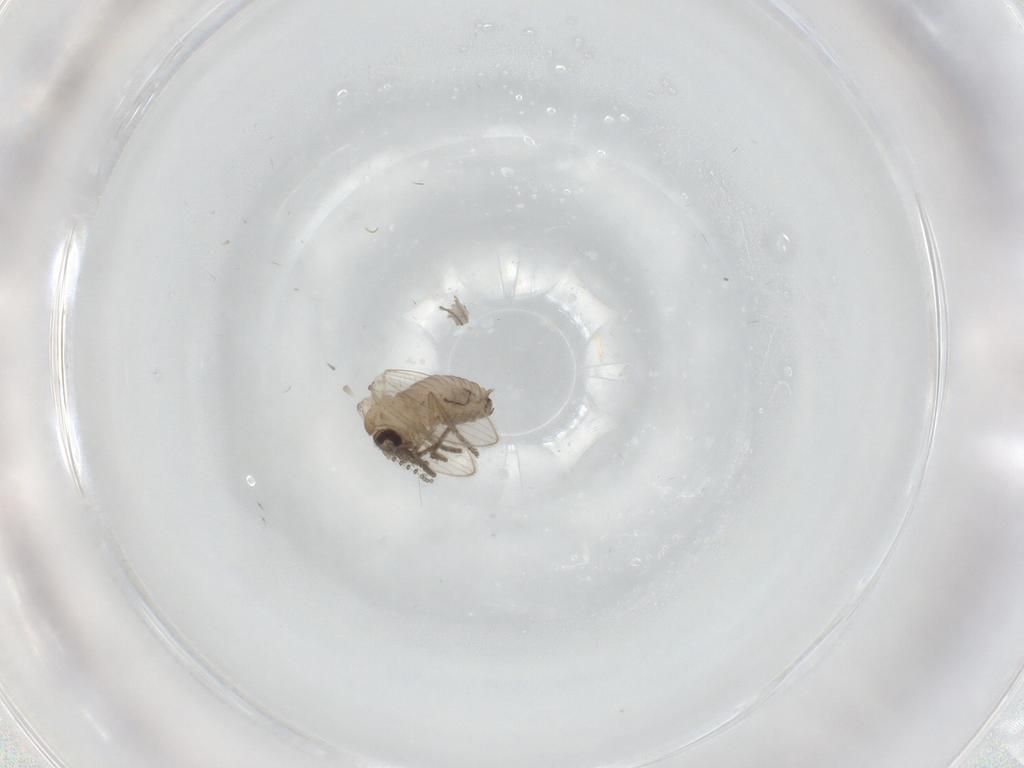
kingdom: Animalia
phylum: Arthropoda
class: Insecta
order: Diptera
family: Psychodidae
